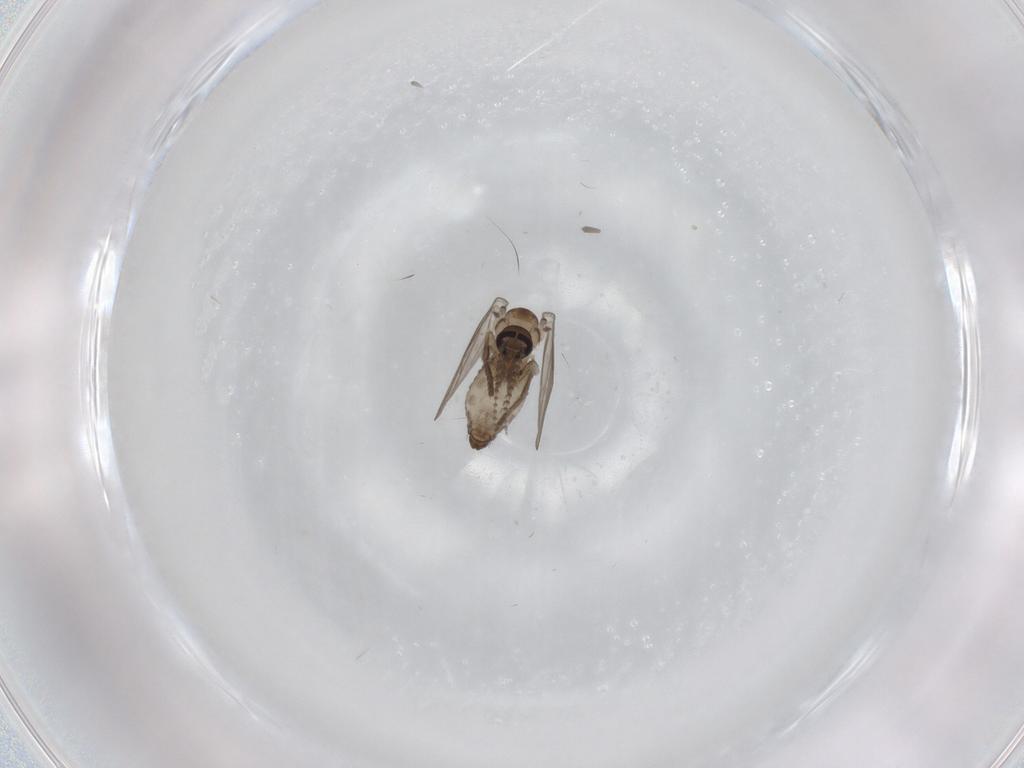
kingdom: Animalia
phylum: Arthropoda
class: Insecta
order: Diptera
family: Psychodidae
